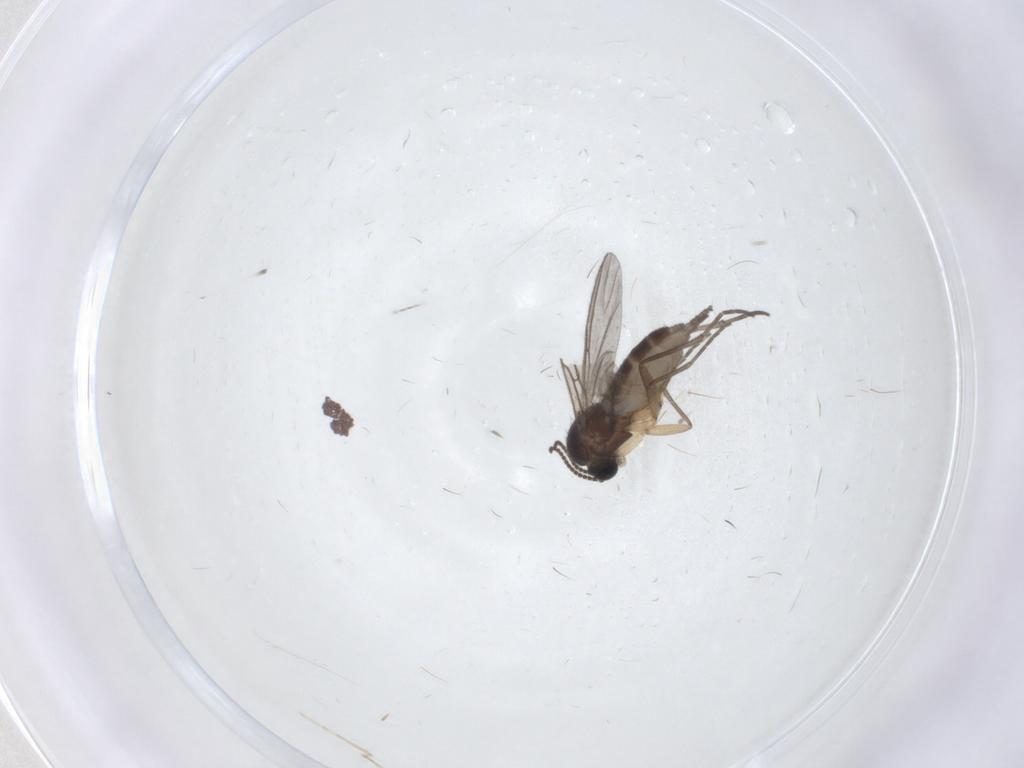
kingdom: Animalia
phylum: Arthropoda
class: Insecta
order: Diptera
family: Sciaridae
